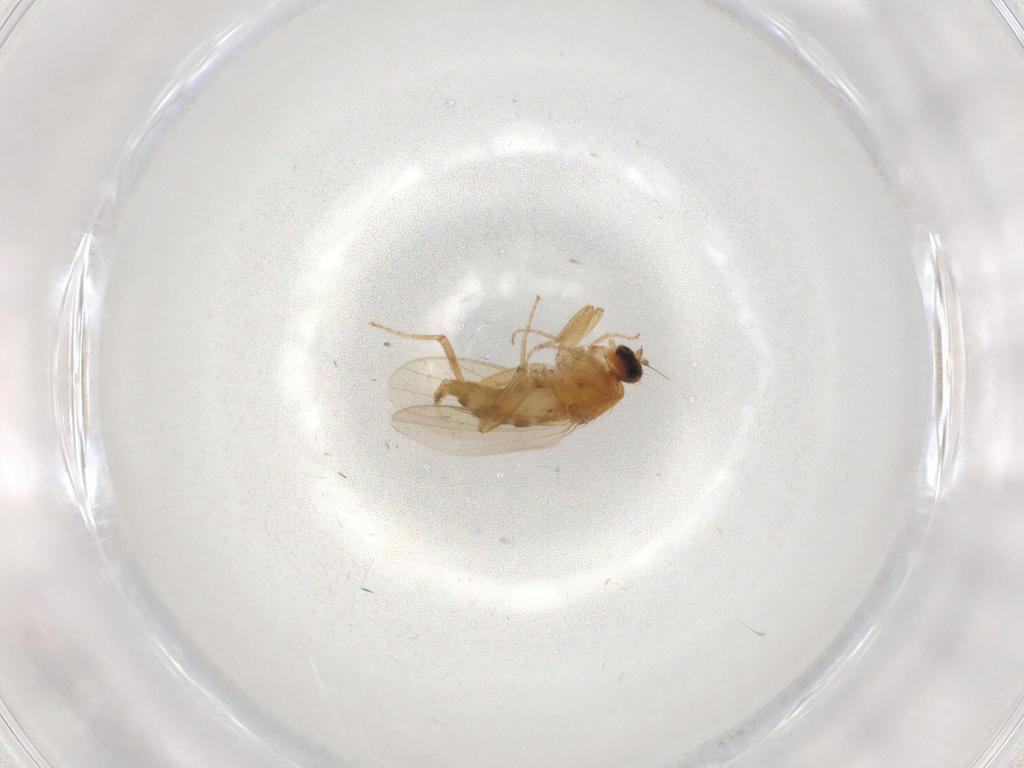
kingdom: Animalia
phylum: Arthropoda
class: Insecta
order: Diptera
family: Hybotidae
